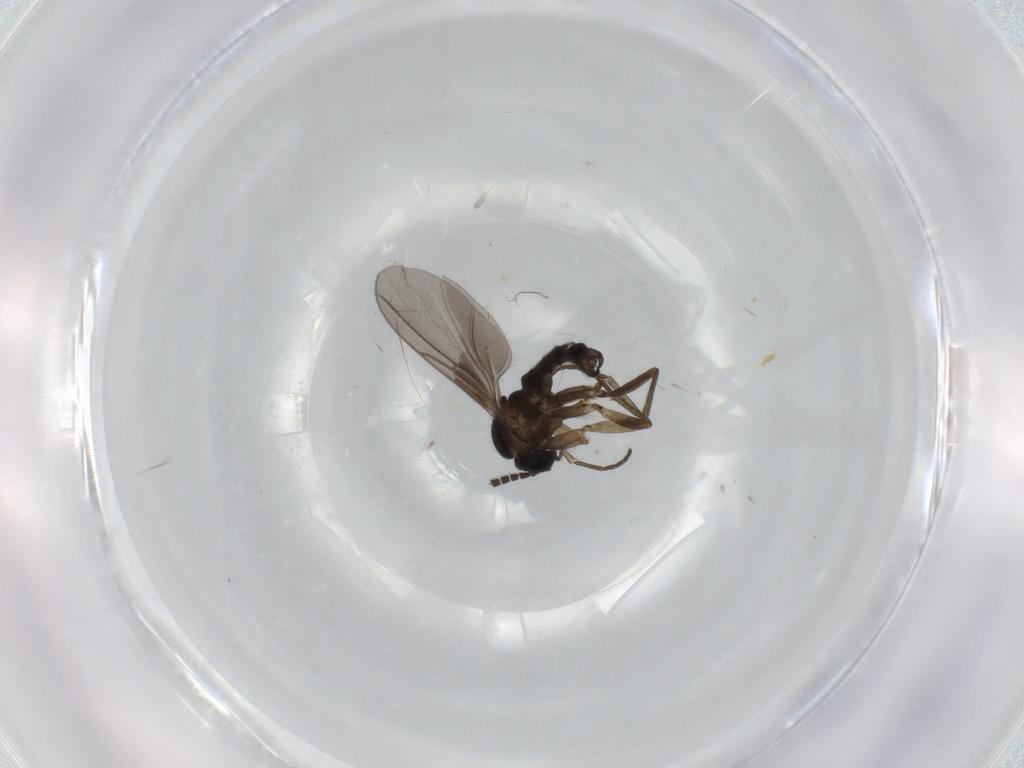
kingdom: Animalia
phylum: Arthropoda
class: Insecta
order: Diptera
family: Sciaridae
